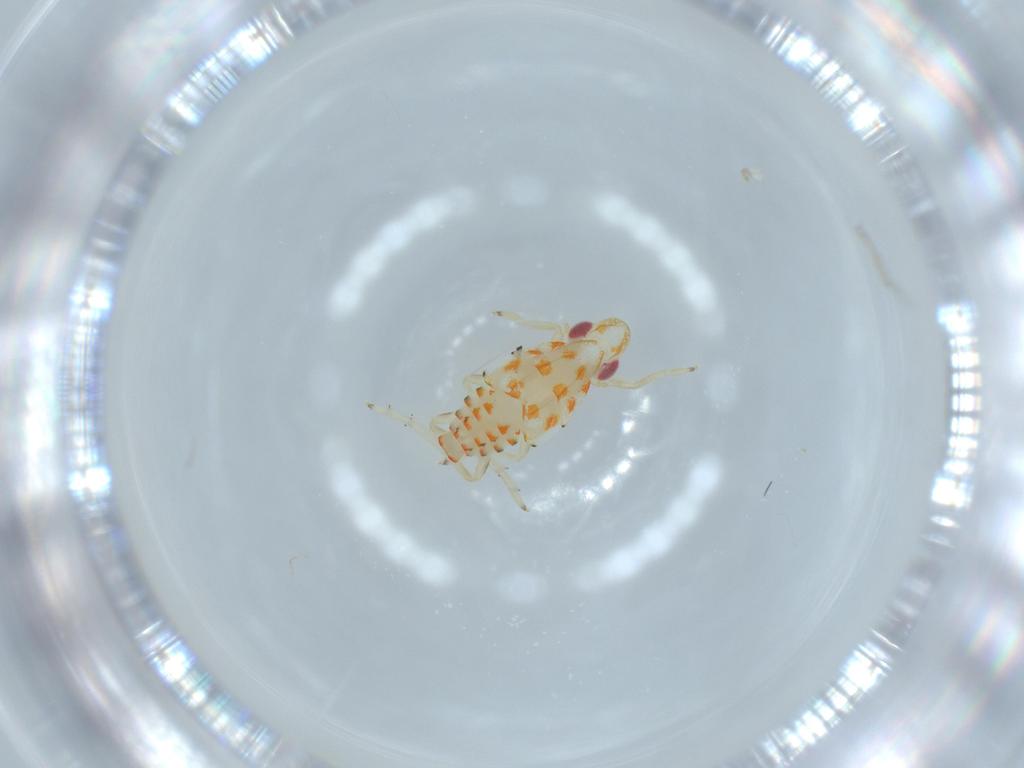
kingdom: Animalia
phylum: Arthropoda
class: Insecta
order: Hemiptera
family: Tropiduchidae
